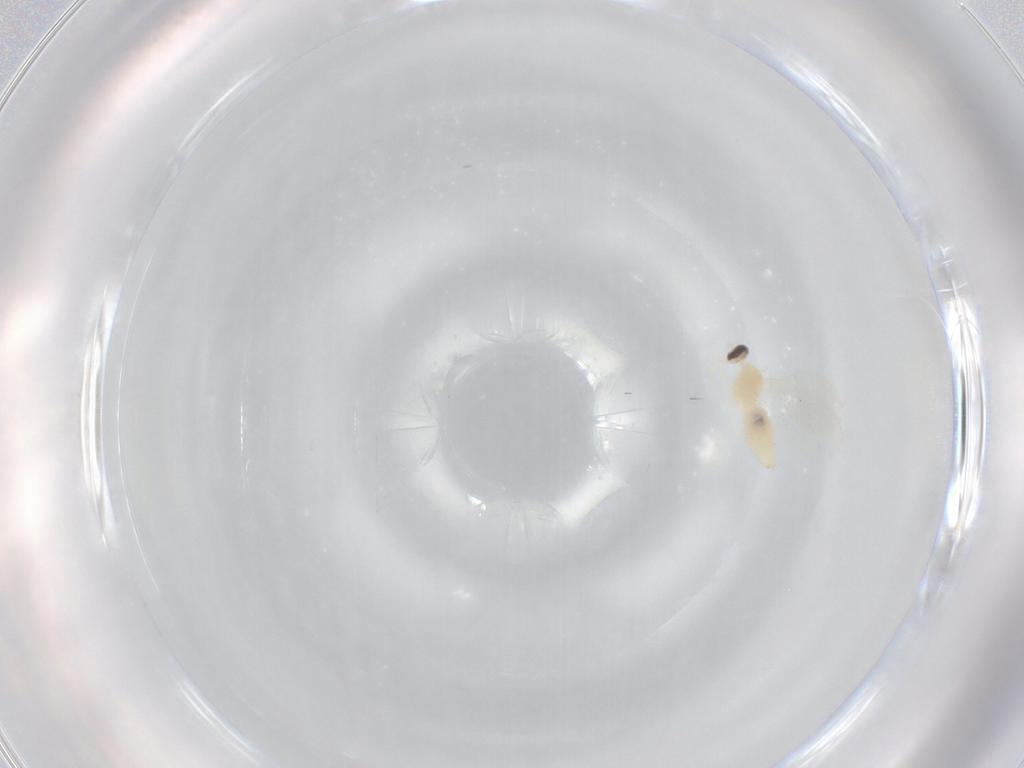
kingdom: Animalia
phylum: Arthropoda
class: Insecta
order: Diptera
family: Cecidomyiidae
